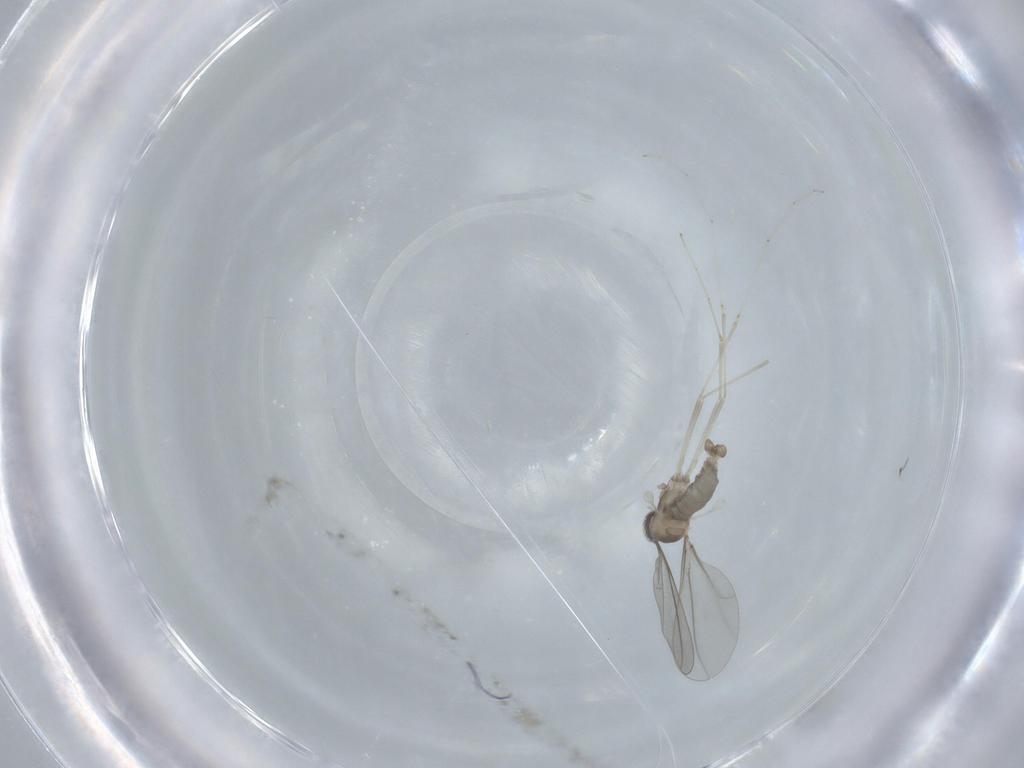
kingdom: Animalia
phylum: Arthropoda
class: Insecta
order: Diptera
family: Cecidomyiidae
